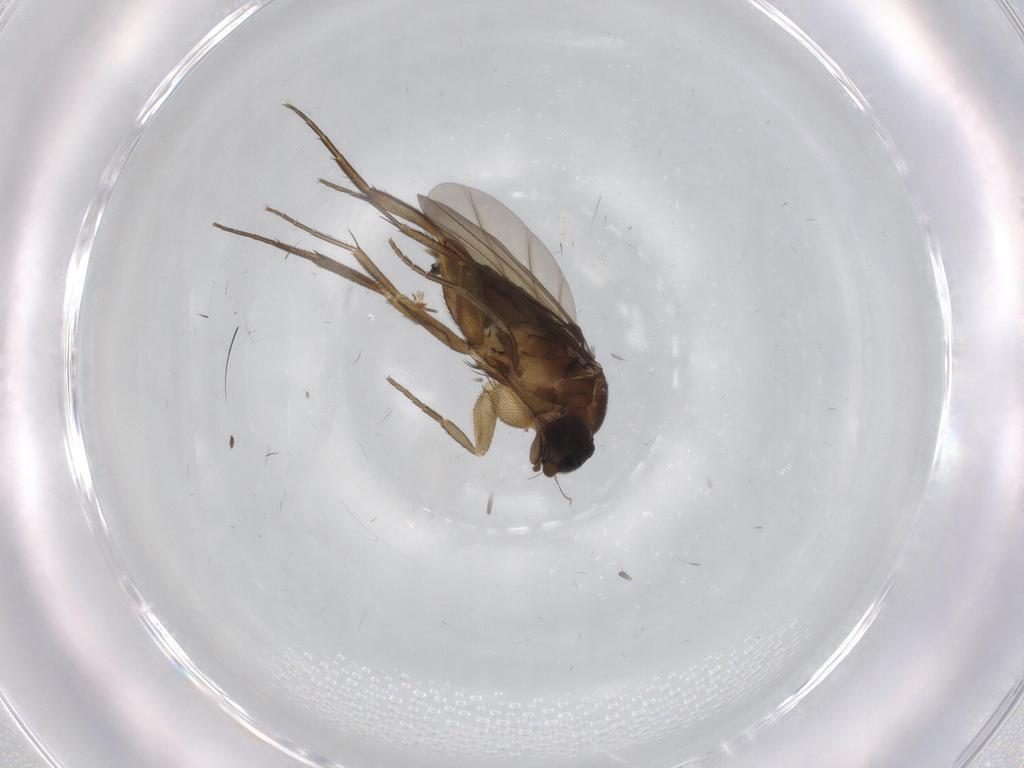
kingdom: Animalia
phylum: Arthropoda
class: Insecta
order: Diptera
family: Phoridae
